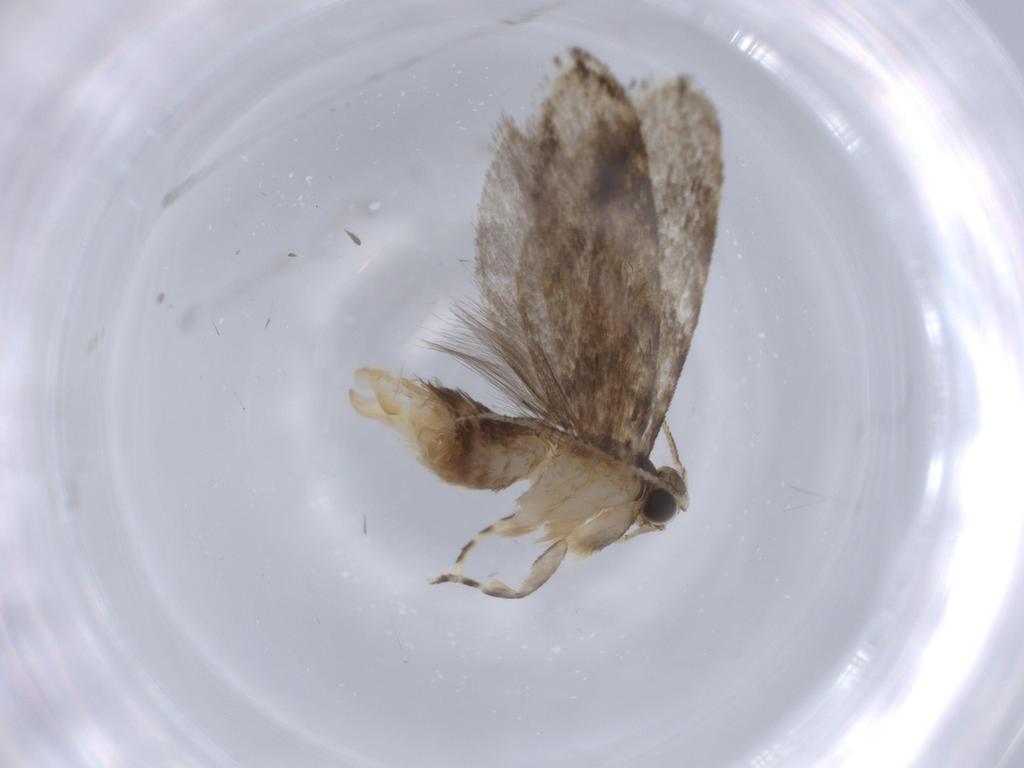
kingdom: Animalia
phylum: Arthropoda
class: Insecta
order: Lepidoptera
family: Tineidae
